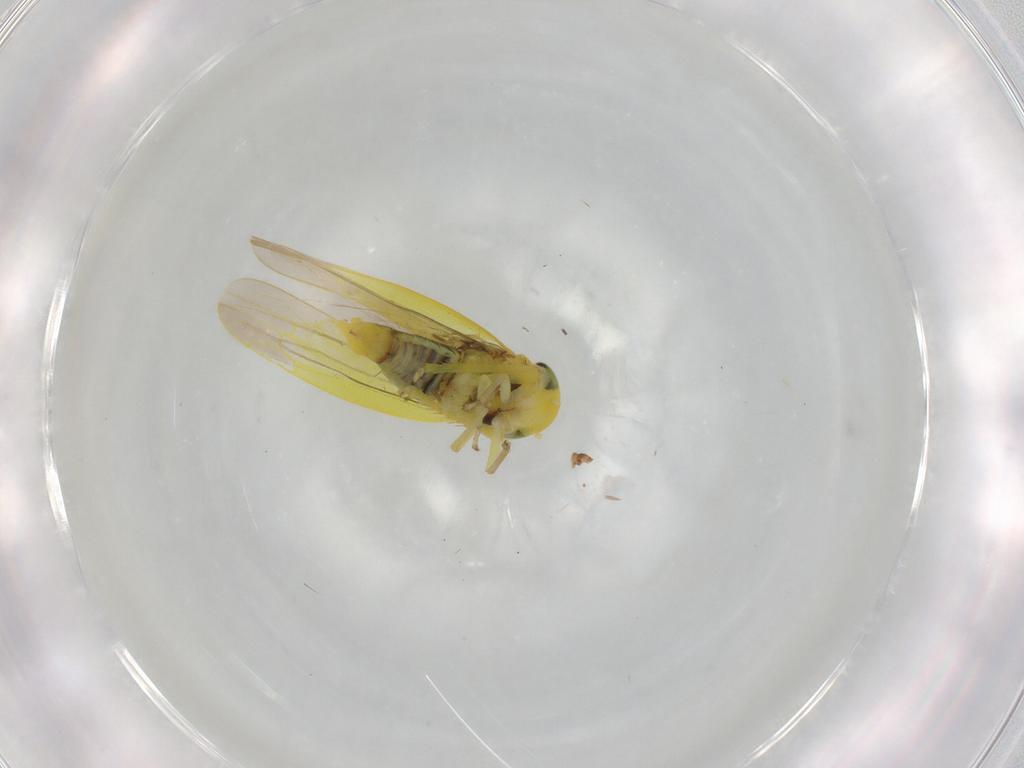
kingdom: Animalia
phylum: Arthropoda
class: Insecta
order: Hemiptera
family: Cicadellidae
